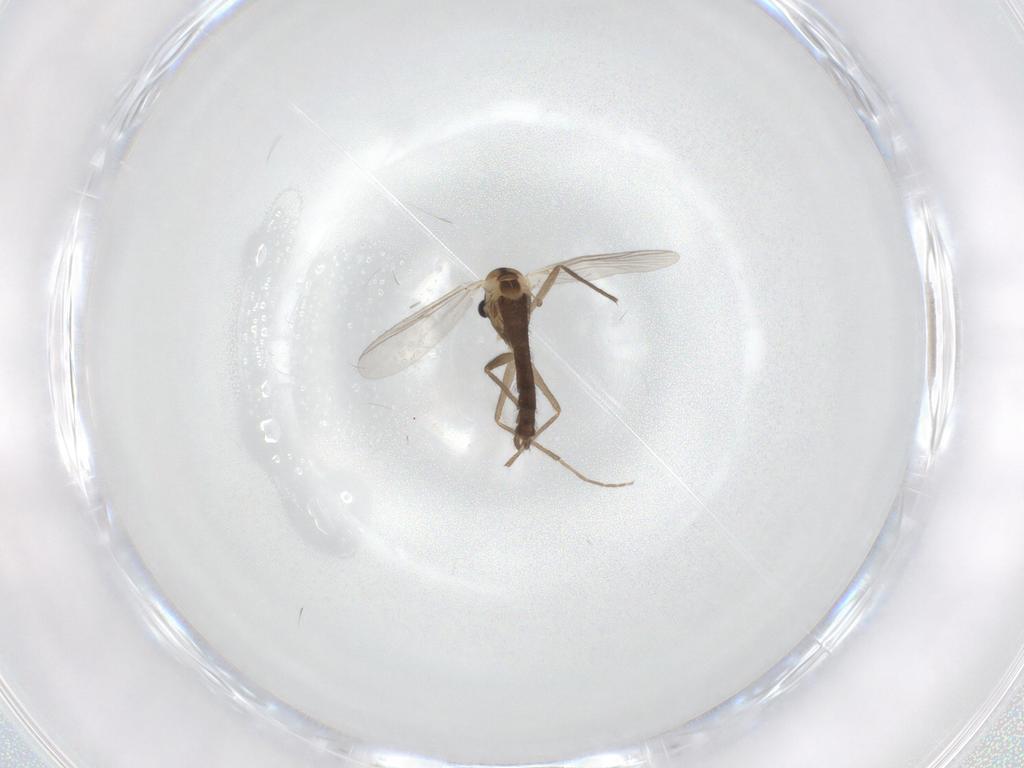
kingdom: Animalia
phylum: Arthropoda
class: Insecta
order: Diptera
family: Chironomidae
